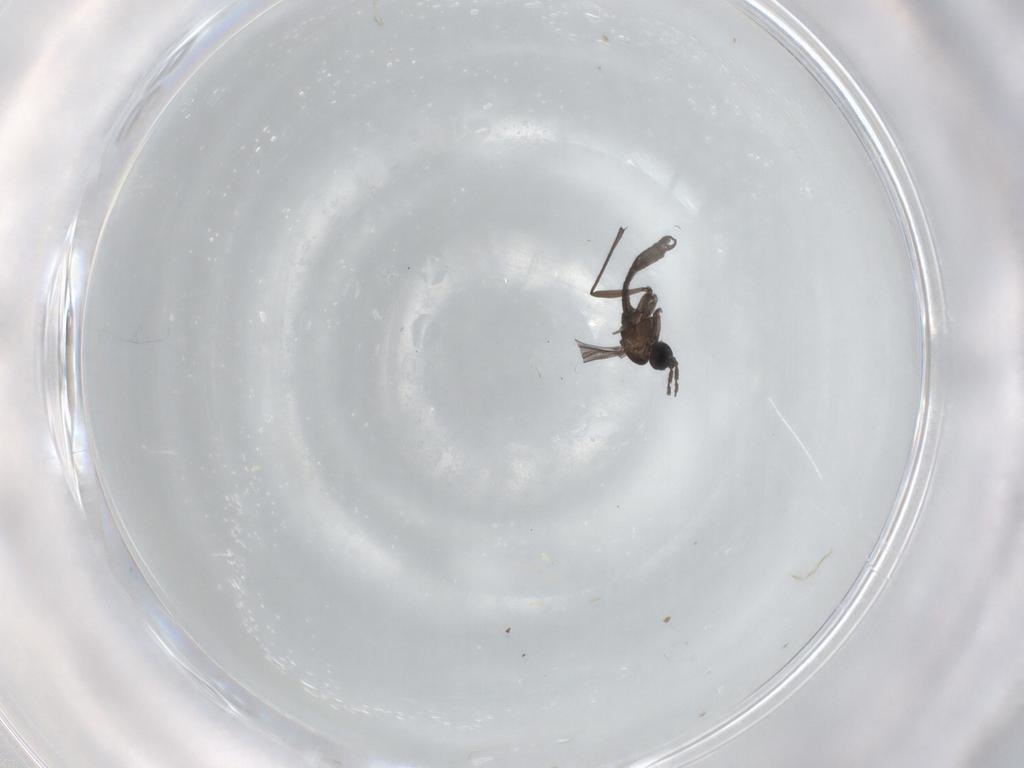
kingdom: Animalia
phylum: Arthropoda
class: Insecta
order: Diptera
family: Sciaridae
